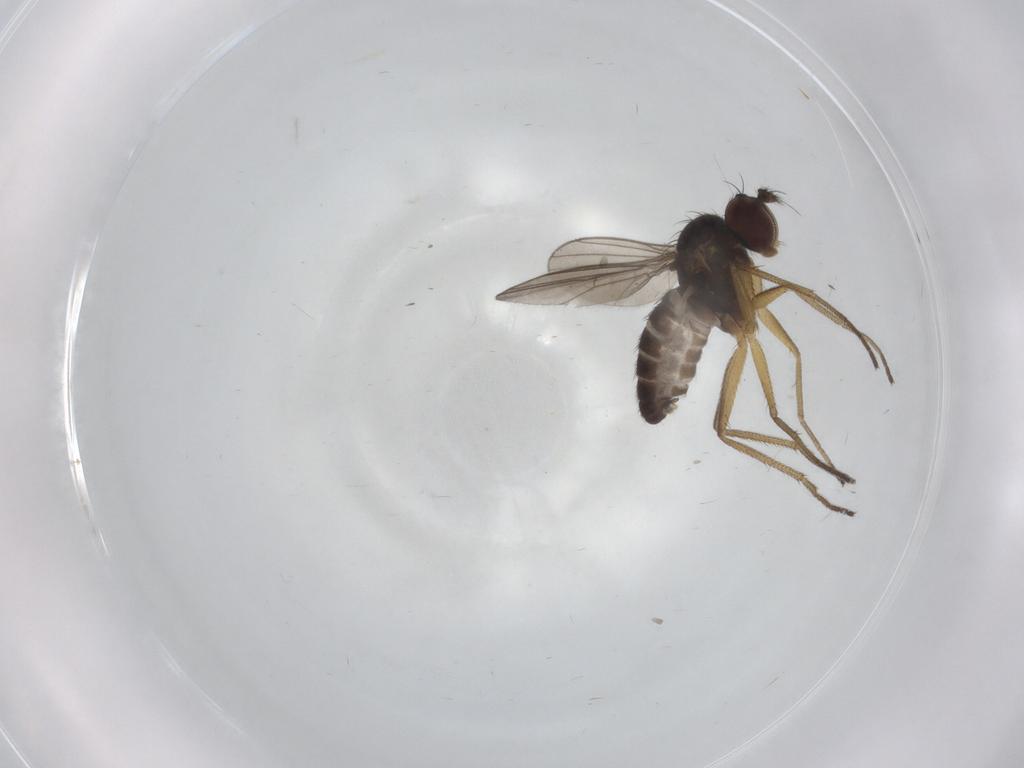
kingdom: Animalia
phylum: Arthropoda
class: Insecta
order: Diptera
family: Dolichopodidae
